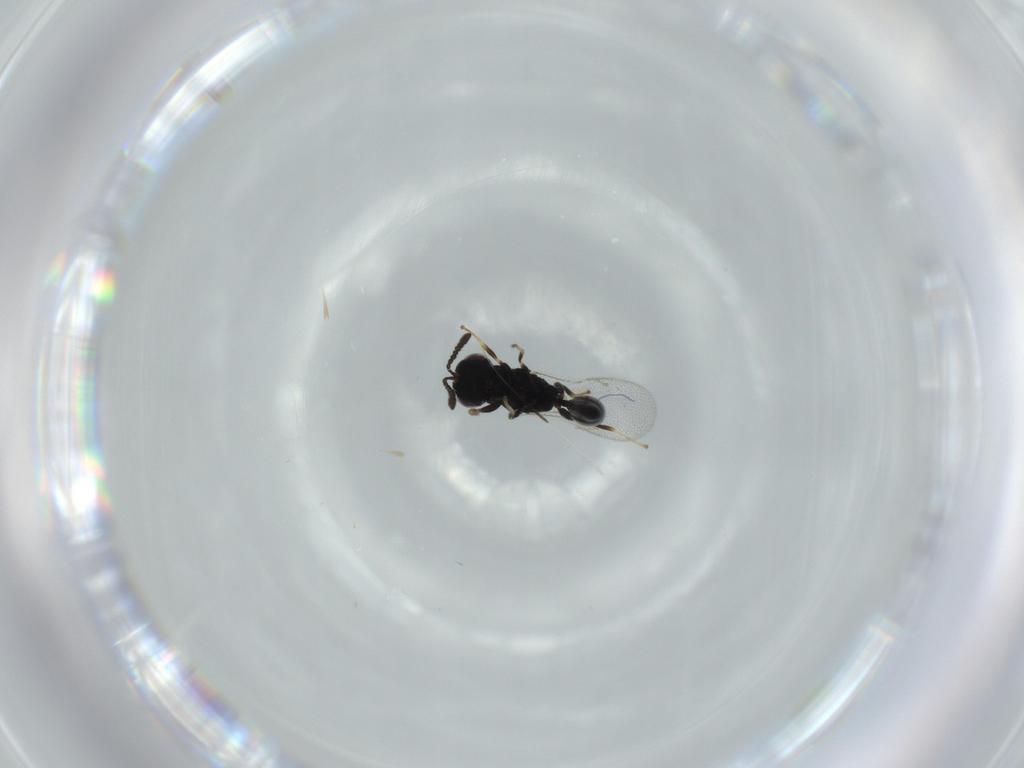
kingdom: Animalia
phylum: Arthropoda
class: Insecta
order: Hymenoptera
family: Eurytomidae
